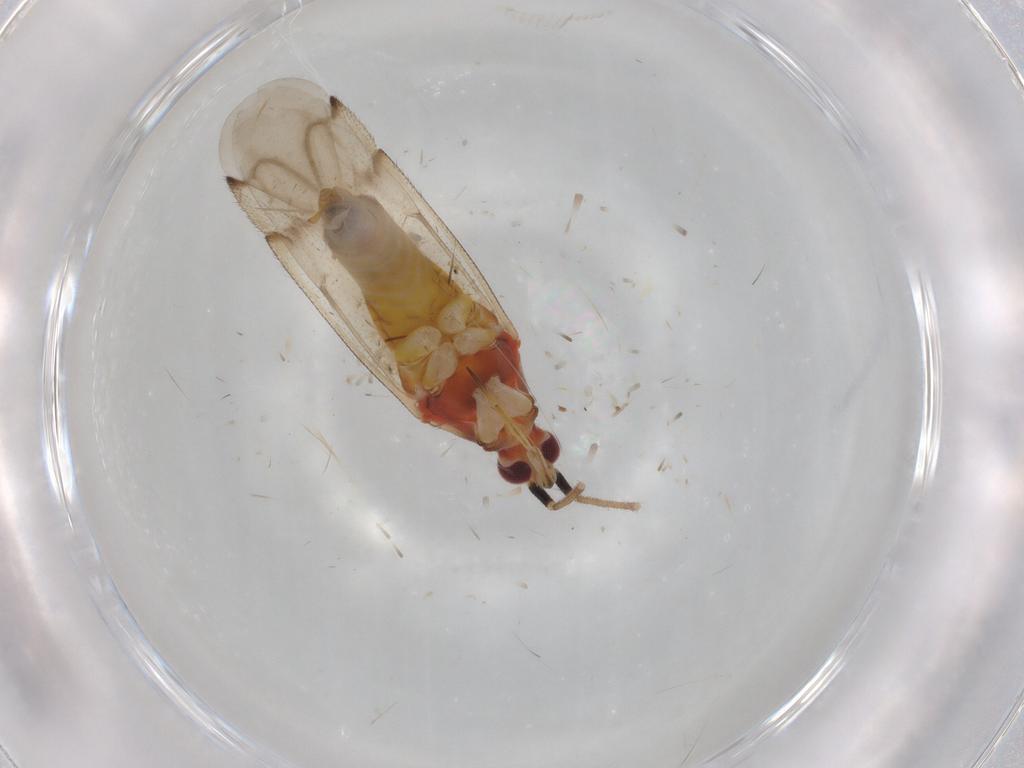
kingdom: Animalia
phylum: Arthropoda
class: Insecta
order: Hemiptera
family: Miridae
